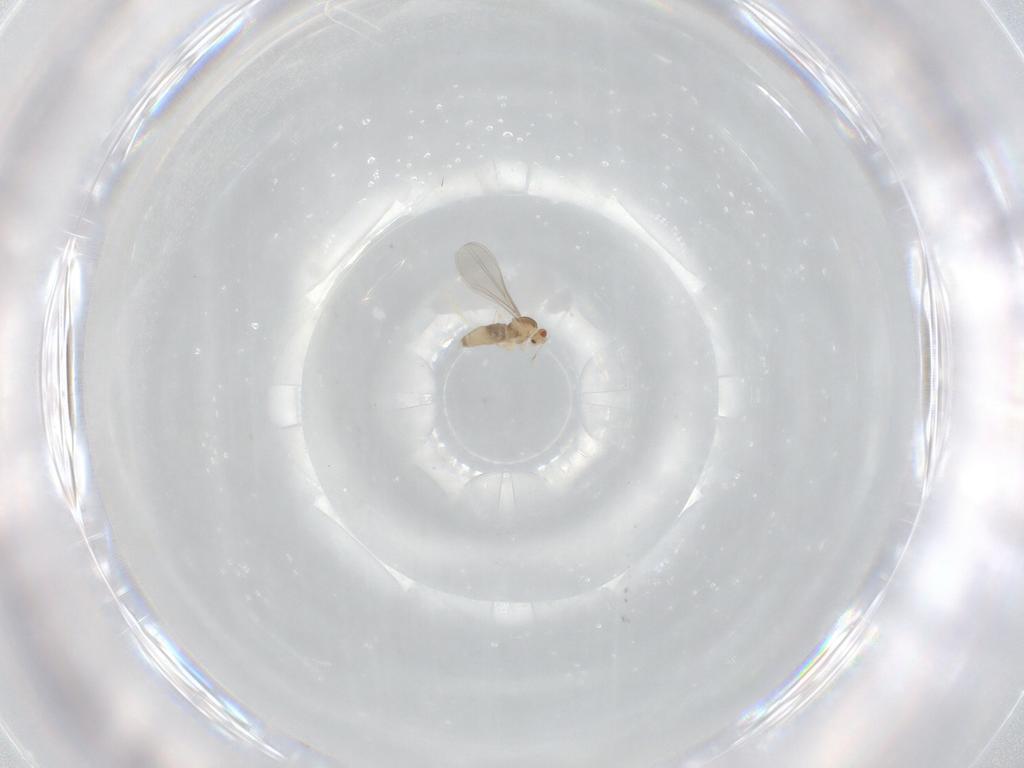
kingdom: Animalia
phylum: Arthropoda
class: Insecta
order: Diptera
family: Cecidomyiidae
